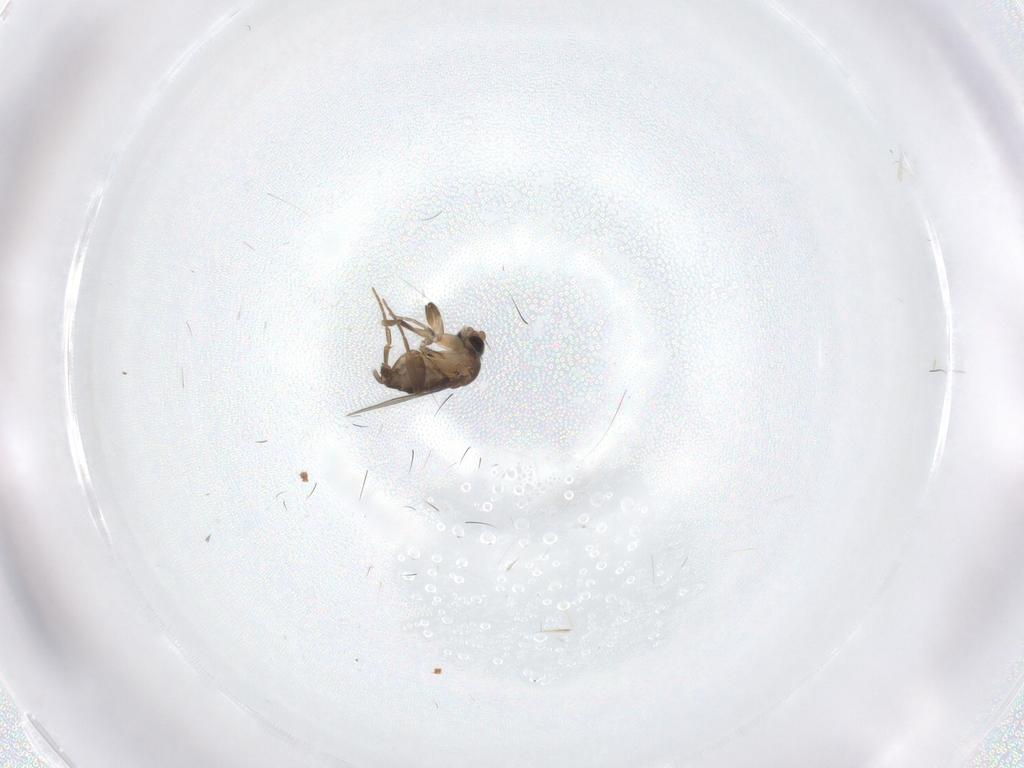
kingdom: Animalia
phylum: Arthropoda
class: Insecta
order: Diptera
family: Phoridae
